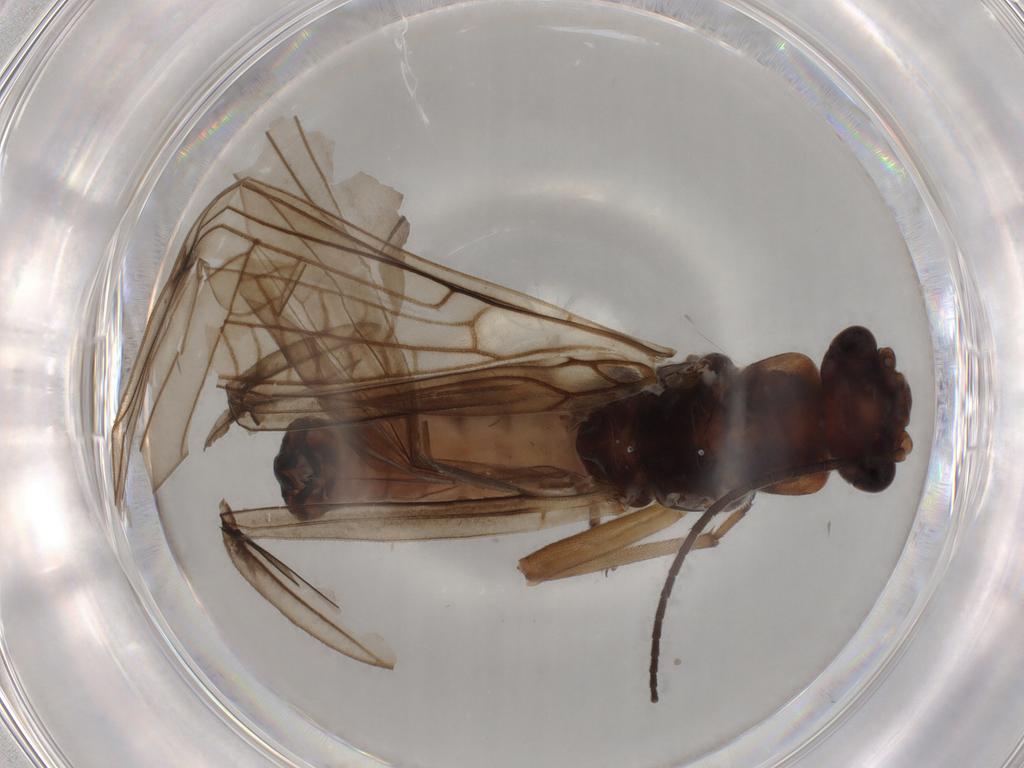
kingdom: Animalia
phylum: Arthropoda
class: Insecta
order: Plecoptera
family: Nemouridae
